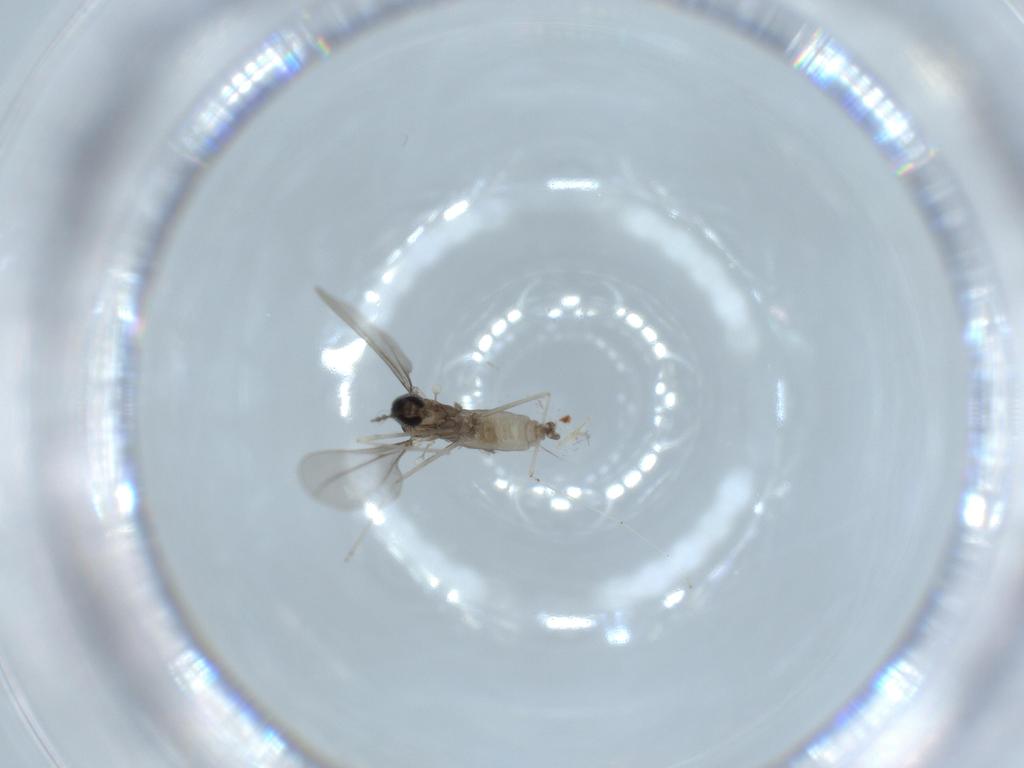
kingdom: Animalia
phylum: Arthropoda
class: Insecta
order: Diptera
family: Cecidomyiidae
